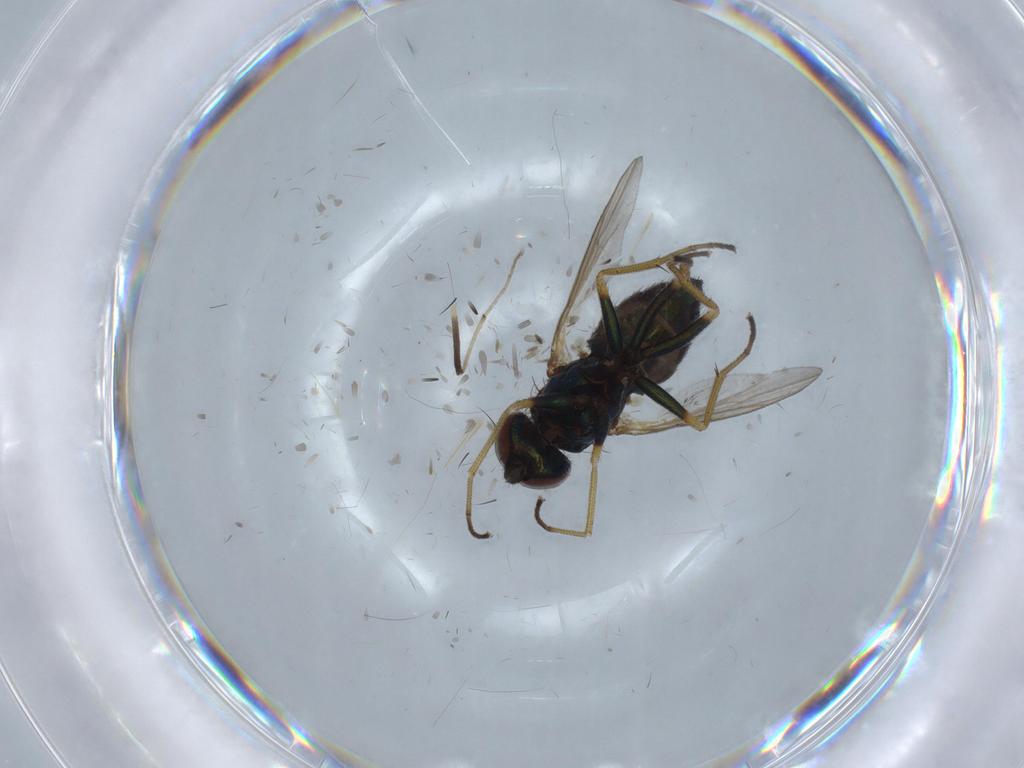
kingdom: Animalia
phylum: Arthropoda
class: Insecta
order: Diptera
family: Dolichopodidae
